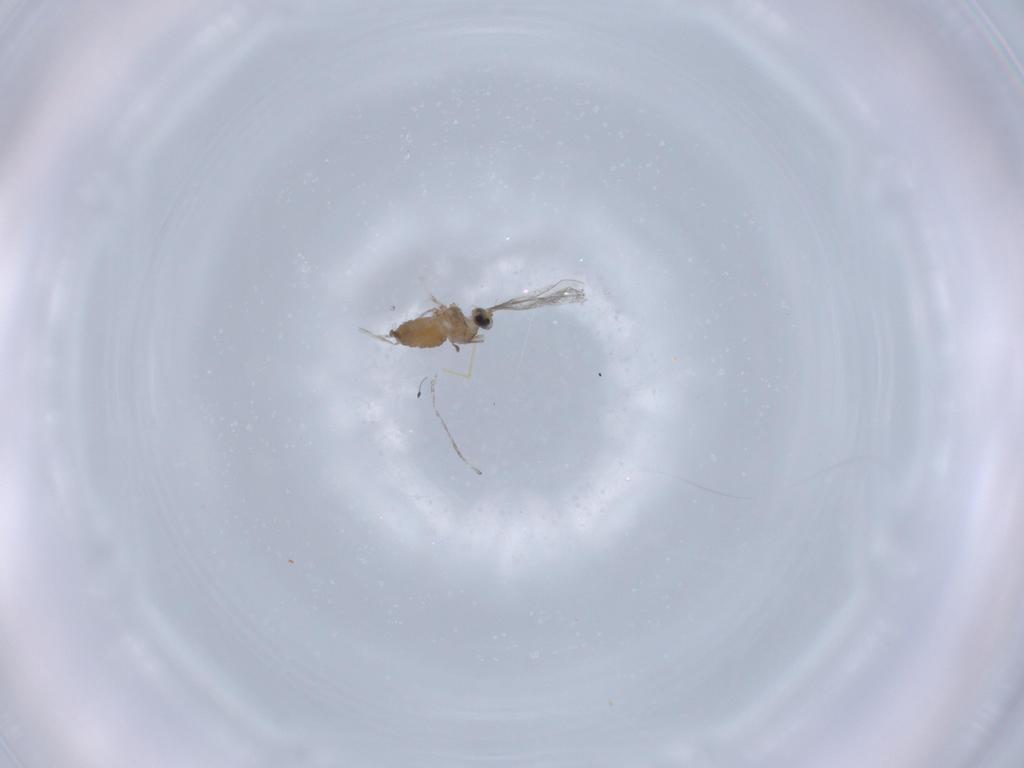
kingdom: Animalia
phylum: Arthropoda
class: Insecta
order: Diptera
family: Cecidomyiidae
